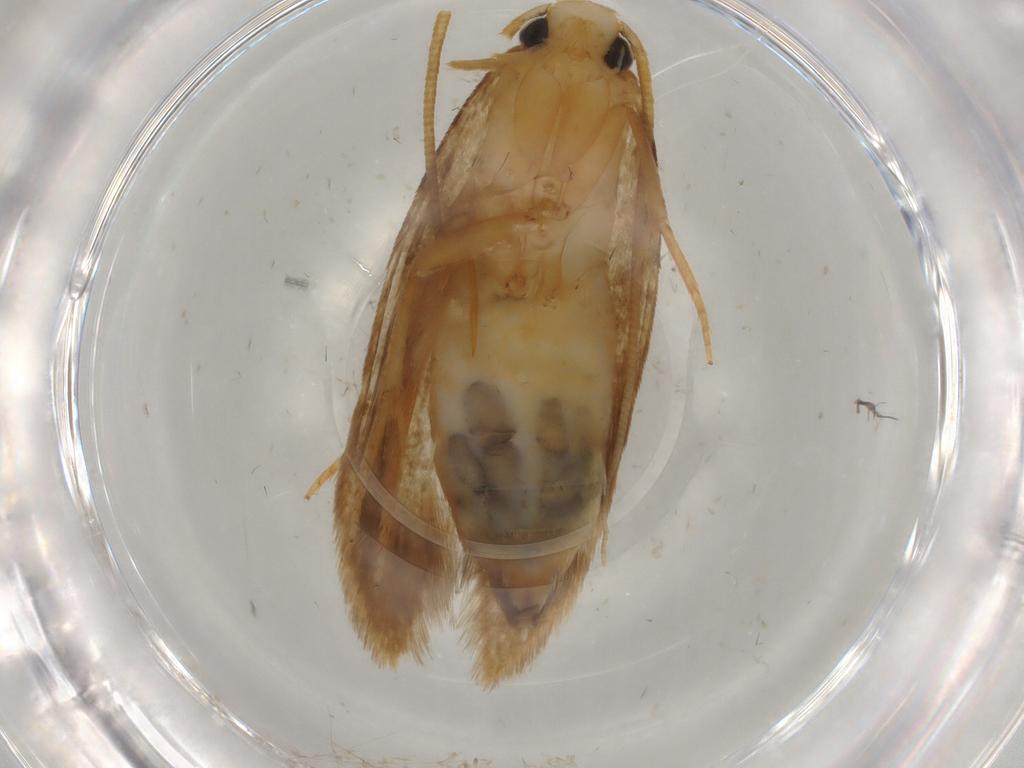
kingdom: Animalia
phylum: Arthropoda
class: Insecta
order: Lepidoptera
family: Tineidae
